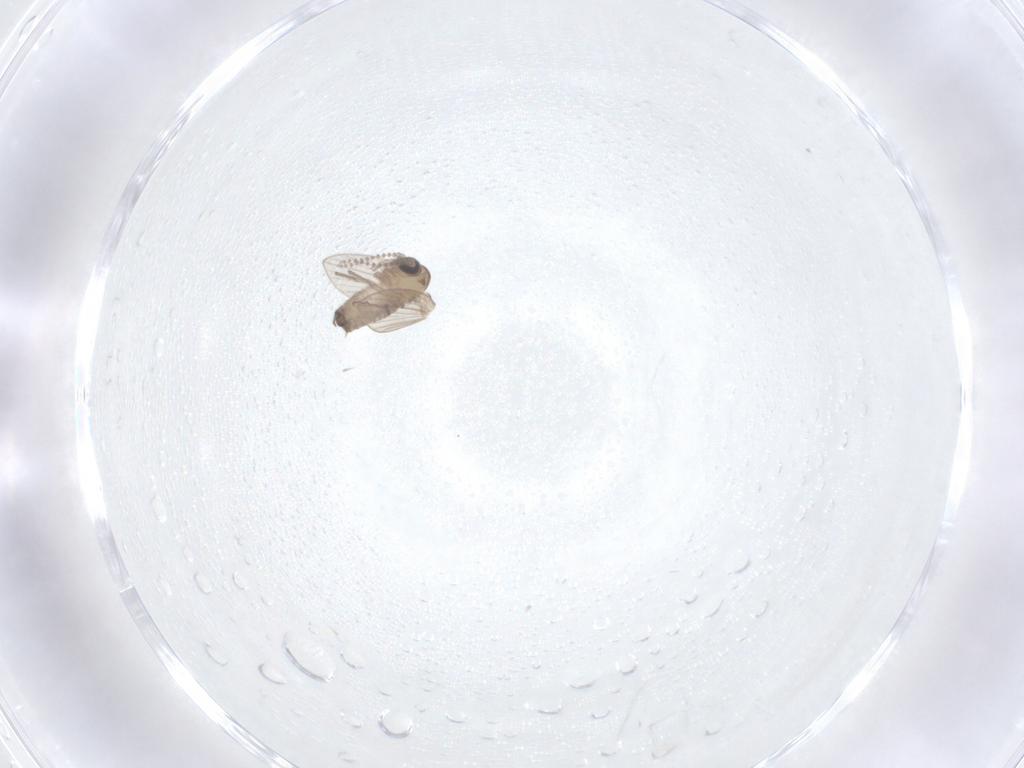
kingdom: Animalia
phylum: Arthropoda
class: Insecta
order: Diptera
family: Psychodidae
